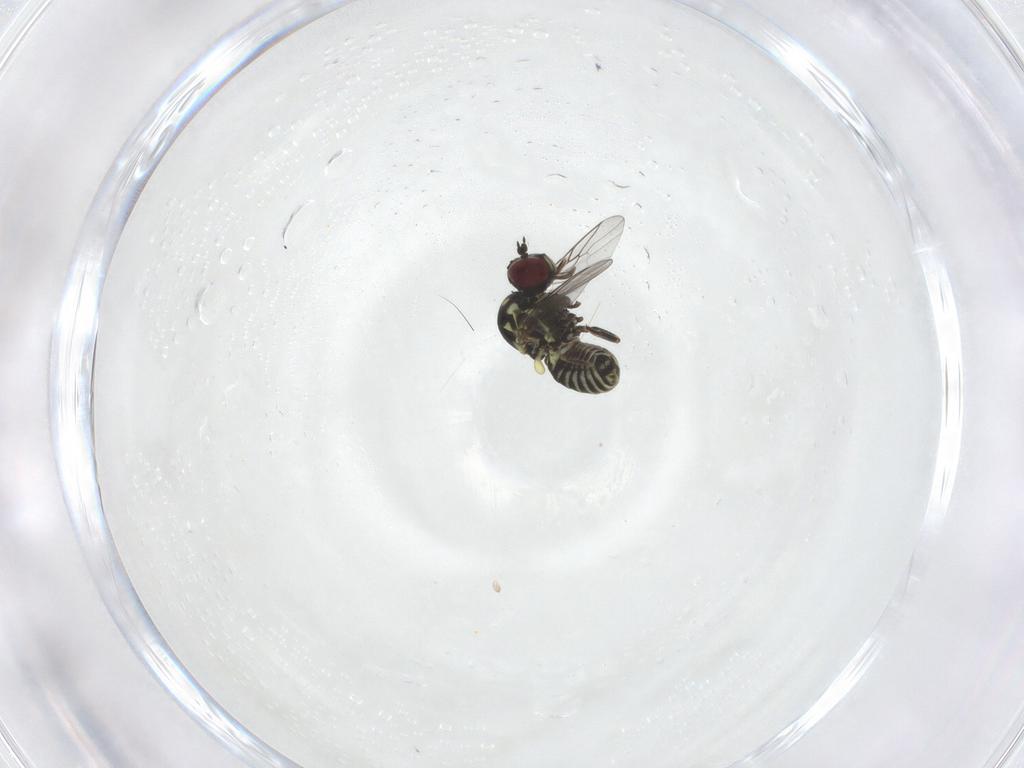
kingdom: Animalia
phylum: Arthropoda
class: Insecta
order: Diptera
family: Mythicomyiidae
